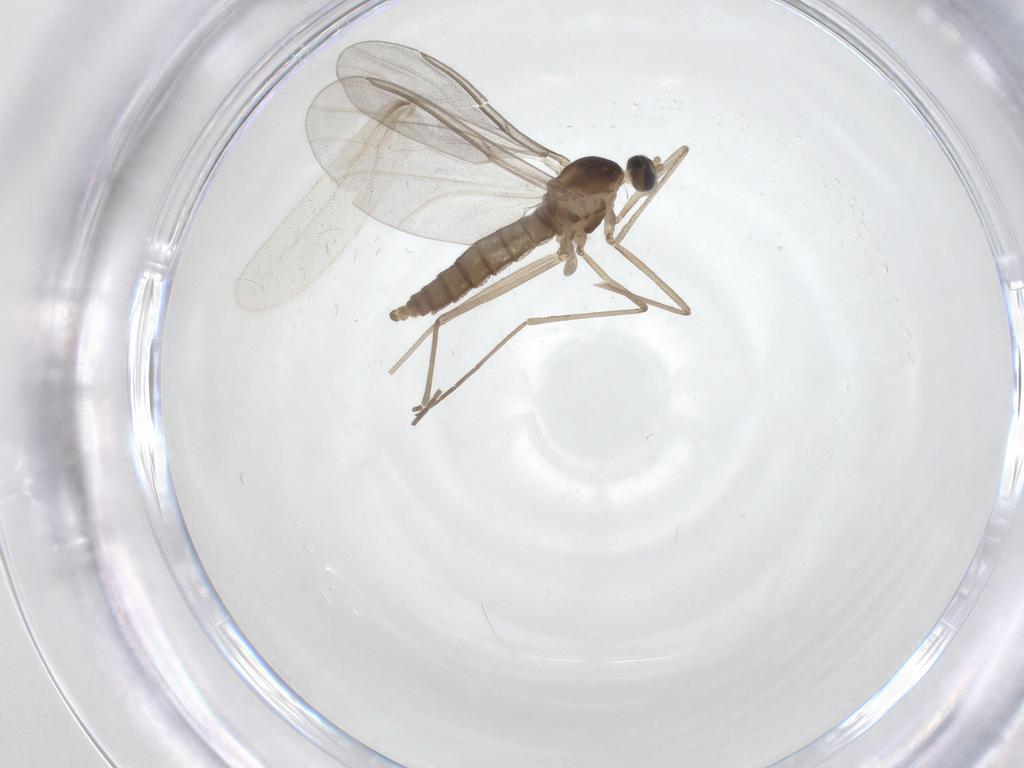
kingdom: Animalia
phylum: Arthropoda
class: Insecta
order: Diptera
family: Cecidomyiidae
